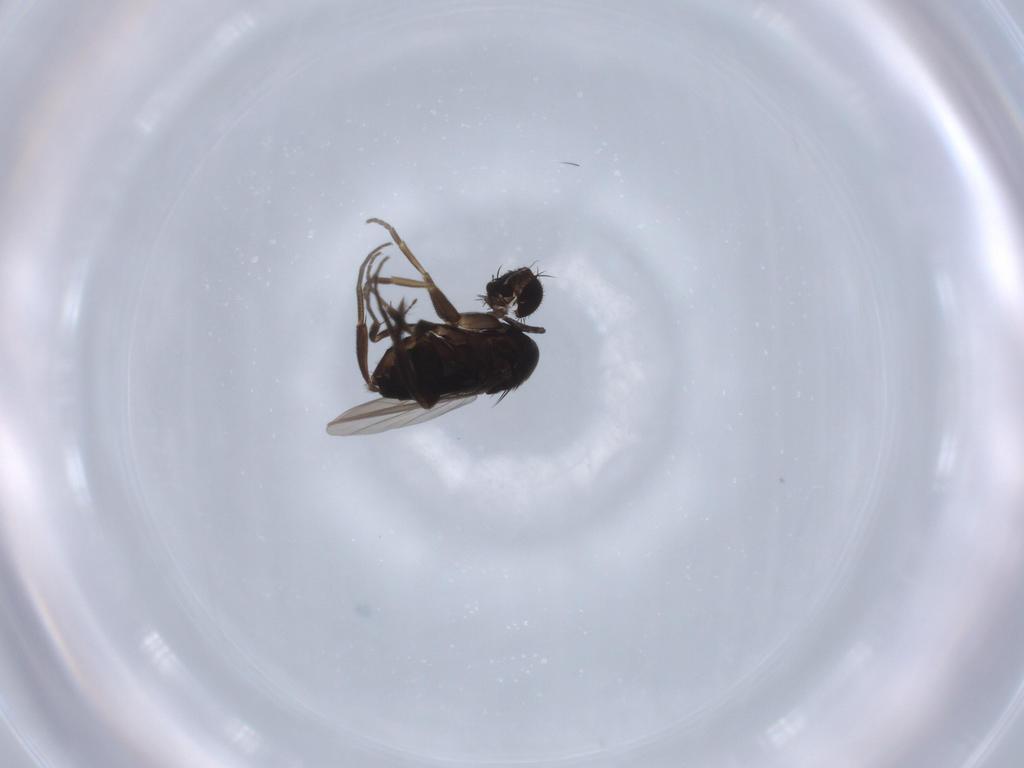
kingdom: Animalia
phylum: Arthropoda
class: Insecta
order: Diptera
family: Phoridae
